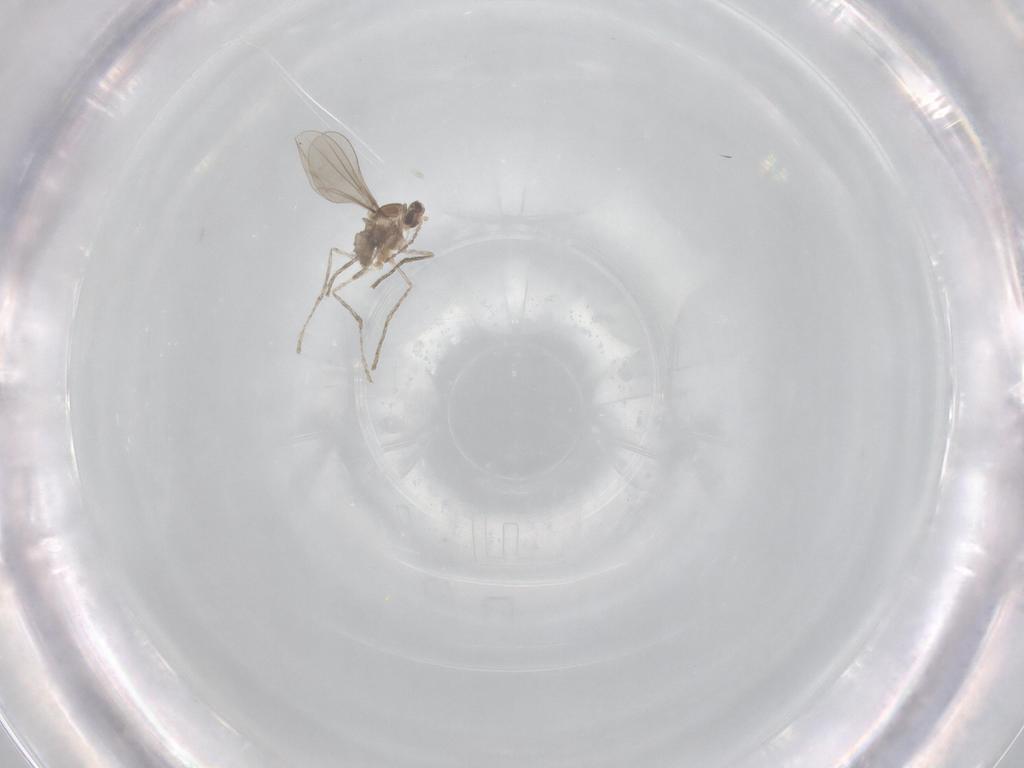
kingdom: Animalia
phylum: Arthropoda
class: Insecta
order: Diptera
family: Cecidomyiidae
